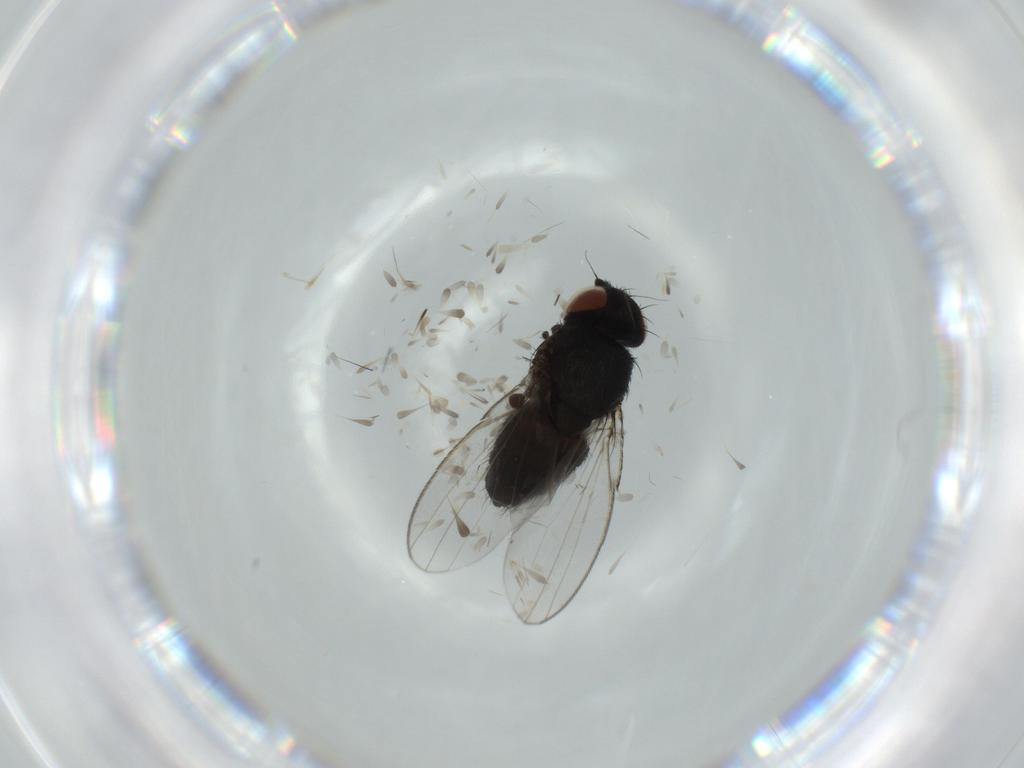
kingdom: Animalia
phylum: Arthropoda
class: Insecta
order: Diptera
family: Milichiidae
